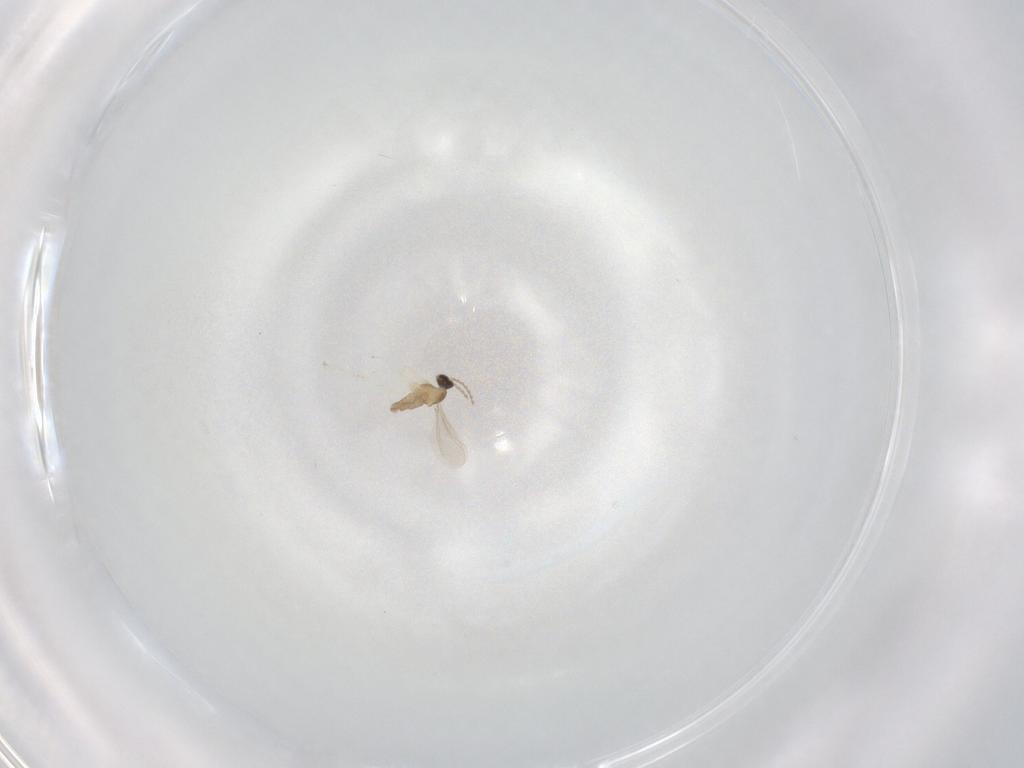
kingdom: Animalia
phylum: Arthropoda
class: Insecta
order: Diptera
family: Cecidomyiidae
